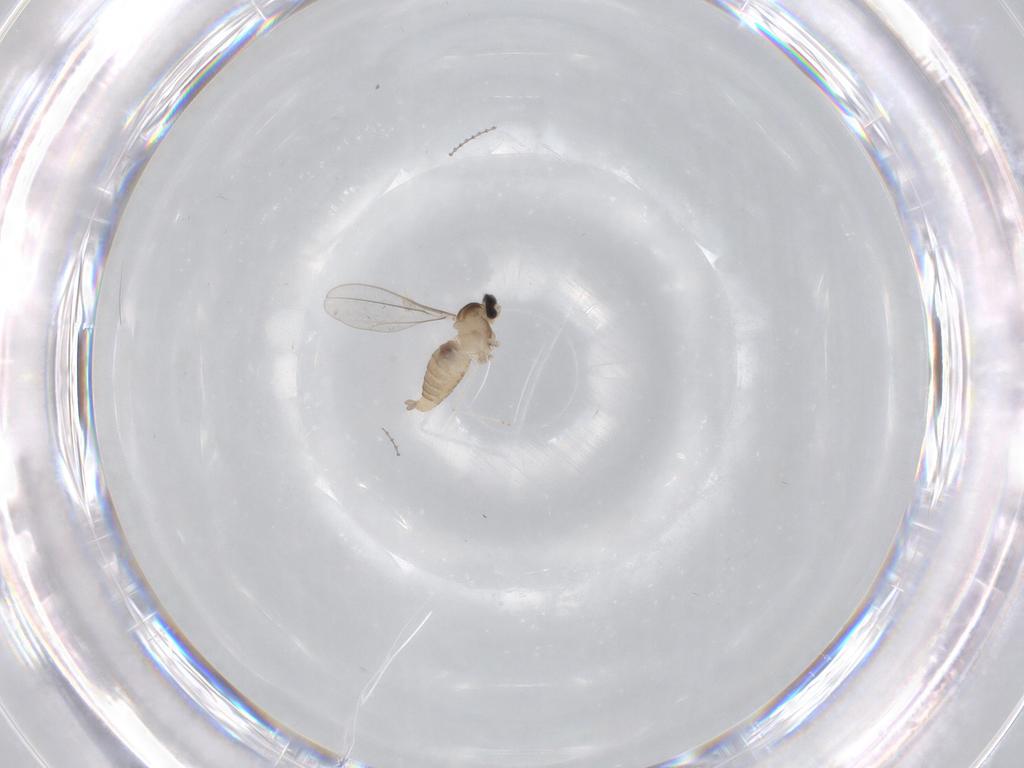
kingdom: Animalia
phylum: Arthropoda
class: Insecta
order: Diptera
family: Cecidomyiidae
